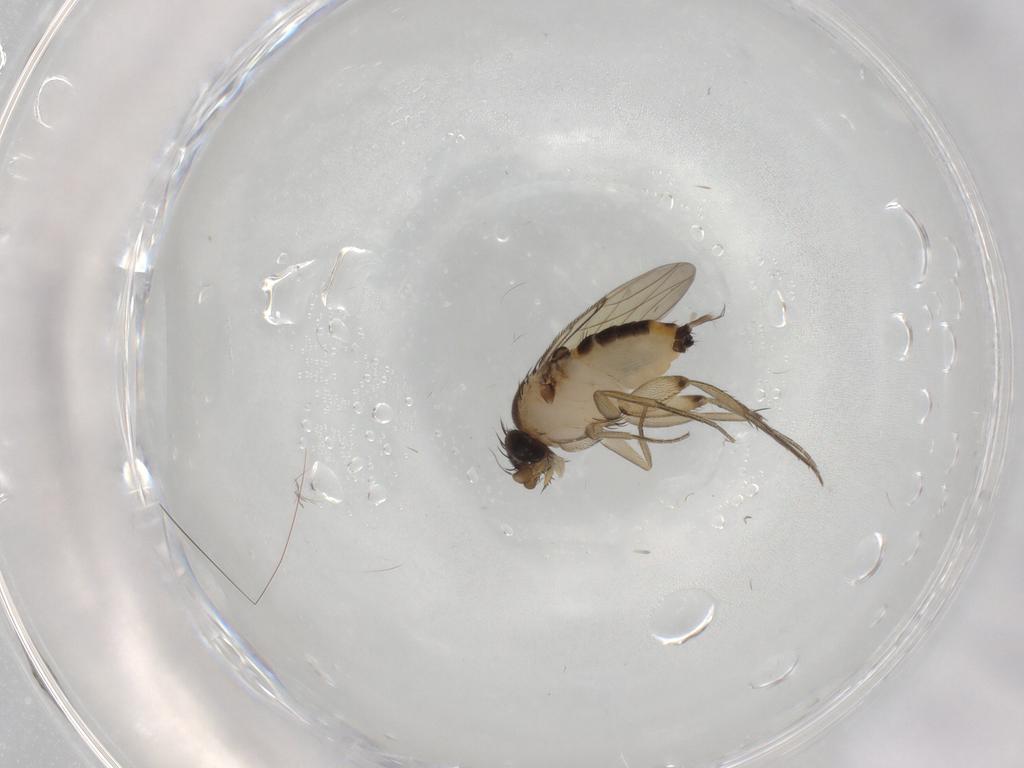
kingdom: Animalia
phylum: Arthropoda
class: Insecta
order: Diptera
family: Phoridae
